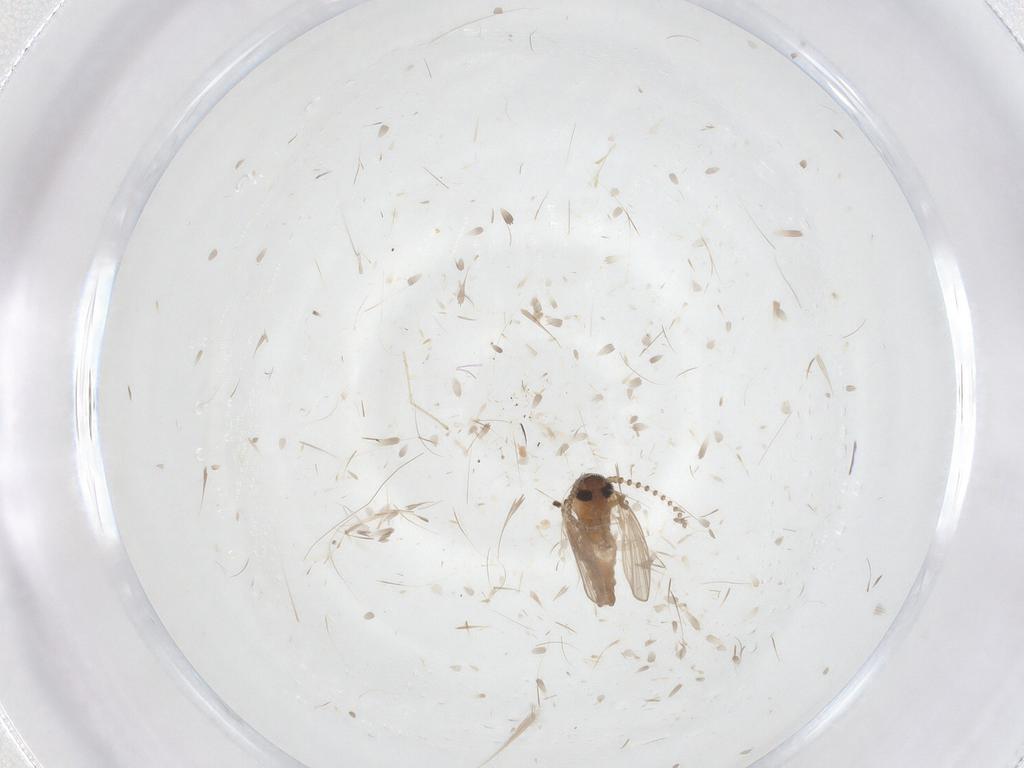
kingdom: Animalia
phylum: Arthropoda
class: Insecta
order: Diptera
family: Psychodidae
